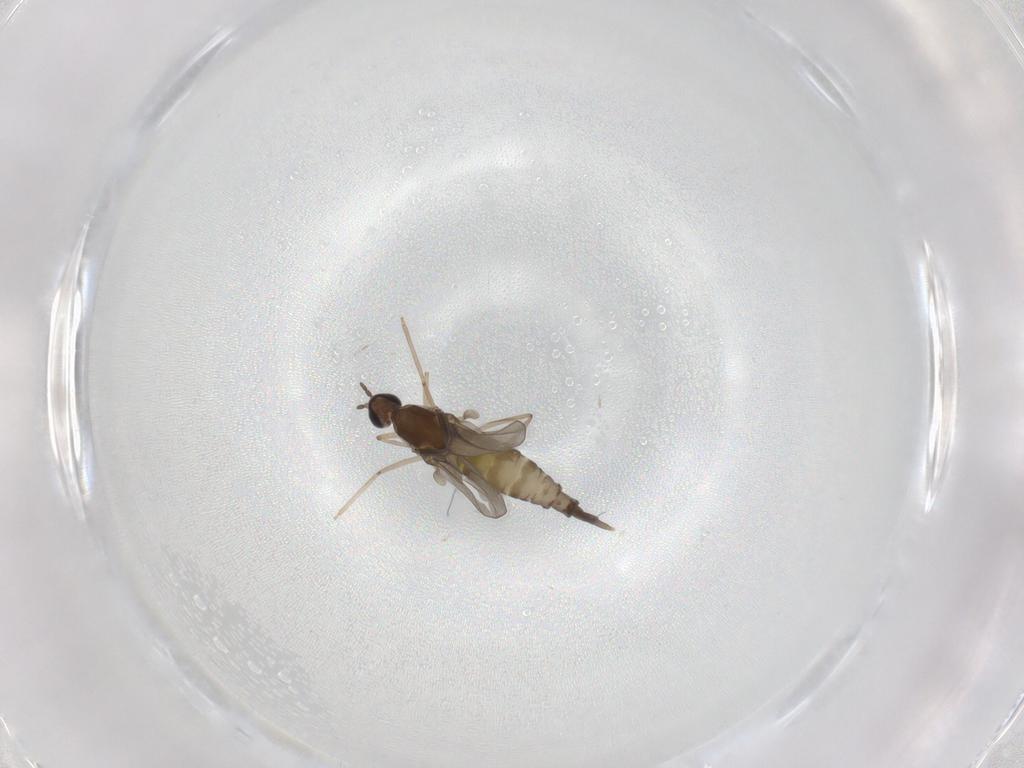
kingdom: Animalia
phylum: Arthropoda
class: Insecta
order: Diptera
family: Cecidomyiidae
